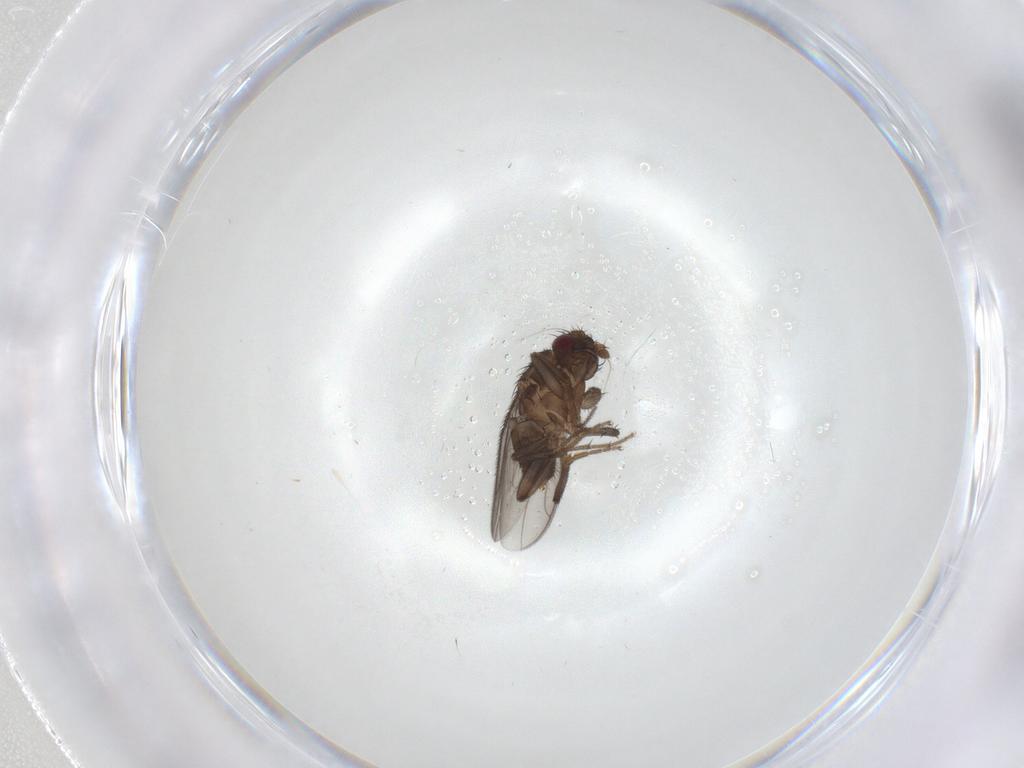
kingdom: Animalia
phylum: Arthropoda
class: Insecta
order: Diptera
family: Sphaeroceridae
